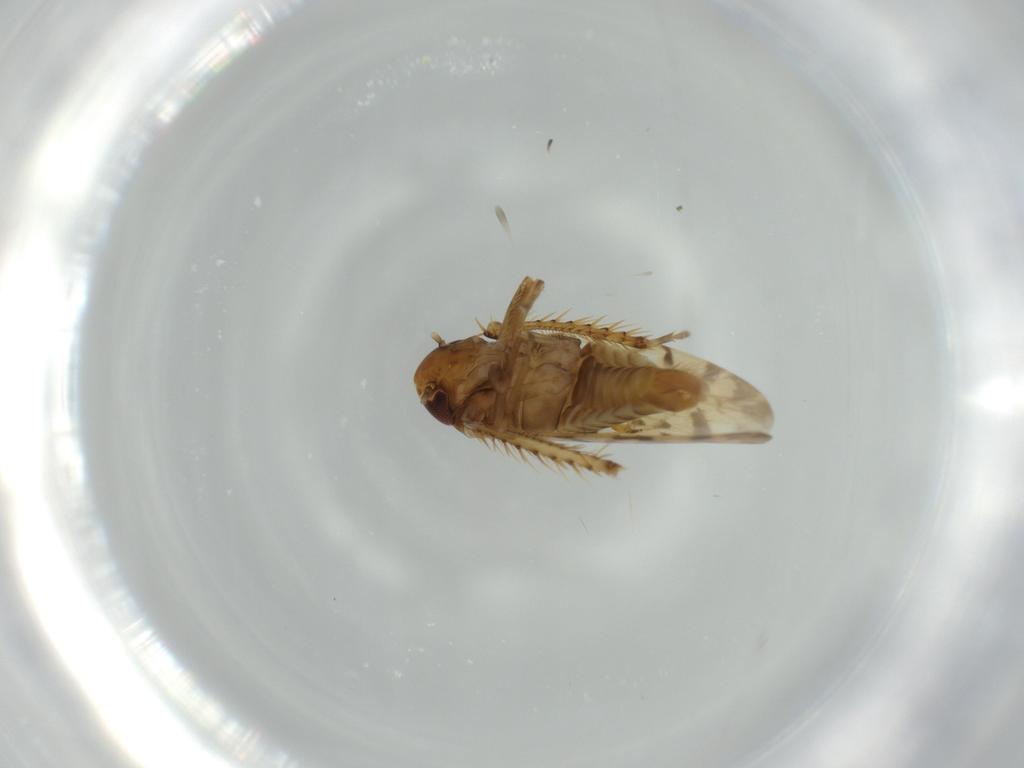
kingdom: Animalia
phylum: Arthropoda
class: Insecta
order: Hemiptera
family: Cicadellidae
